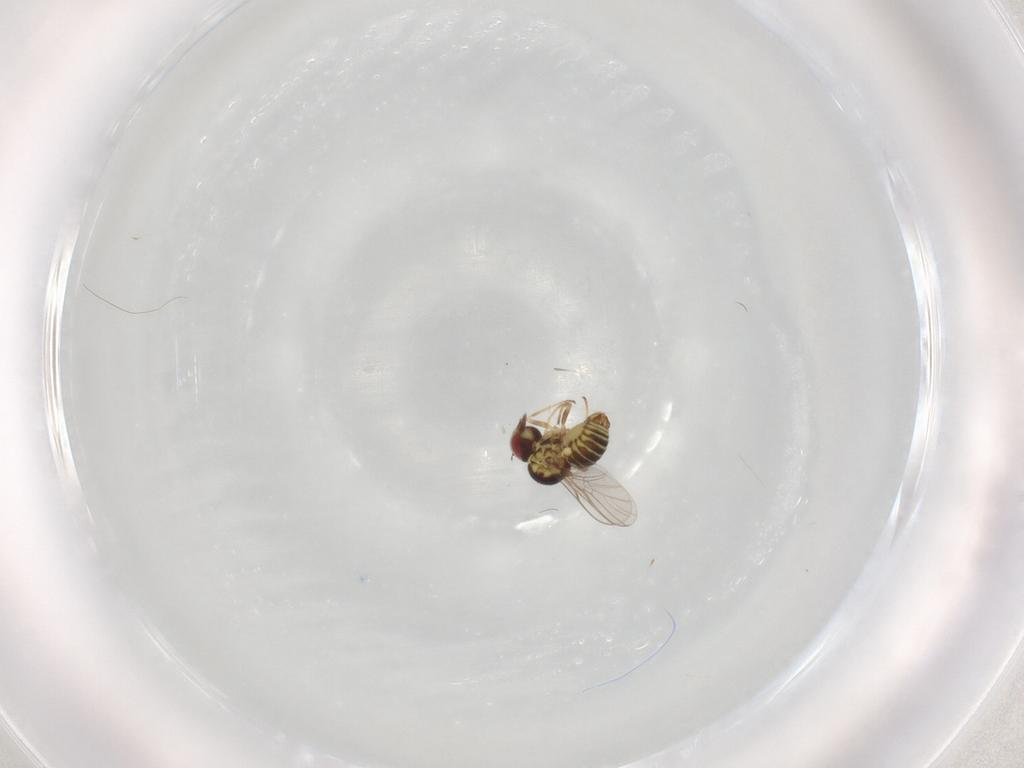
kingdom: Animalia
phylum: Arthropoda
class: Insecta
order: Diptera
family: Bombyliidae
